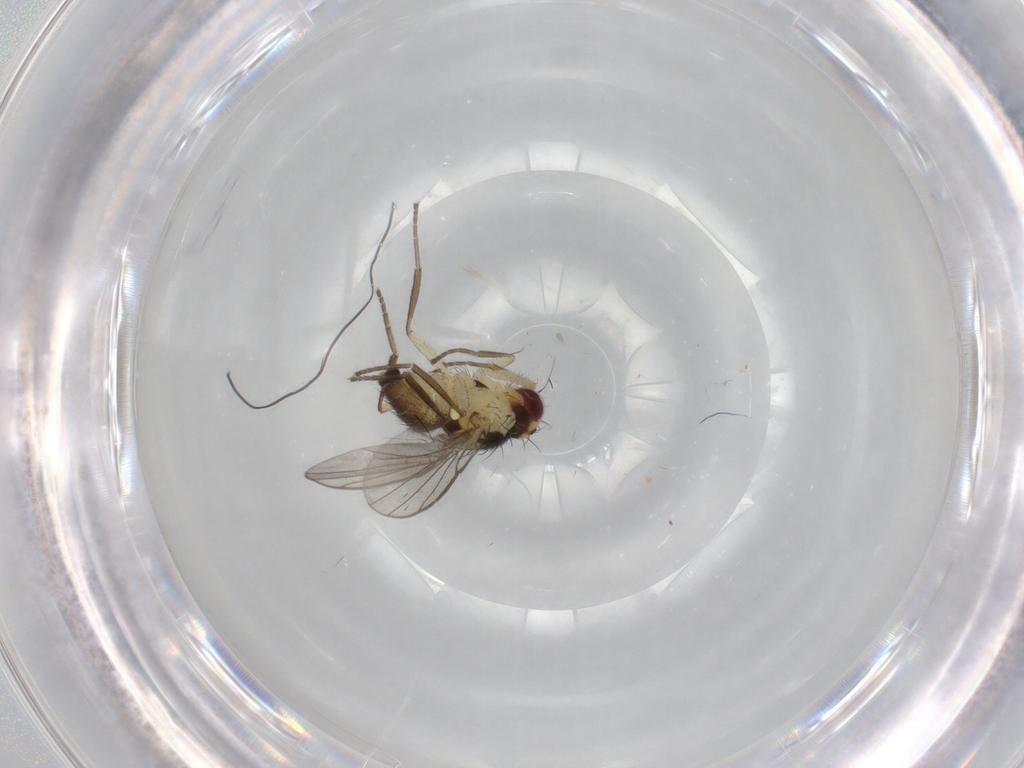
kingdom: Animalia
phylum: Arthropoda
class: Insecta
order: Diptera
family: Agromyzidae
